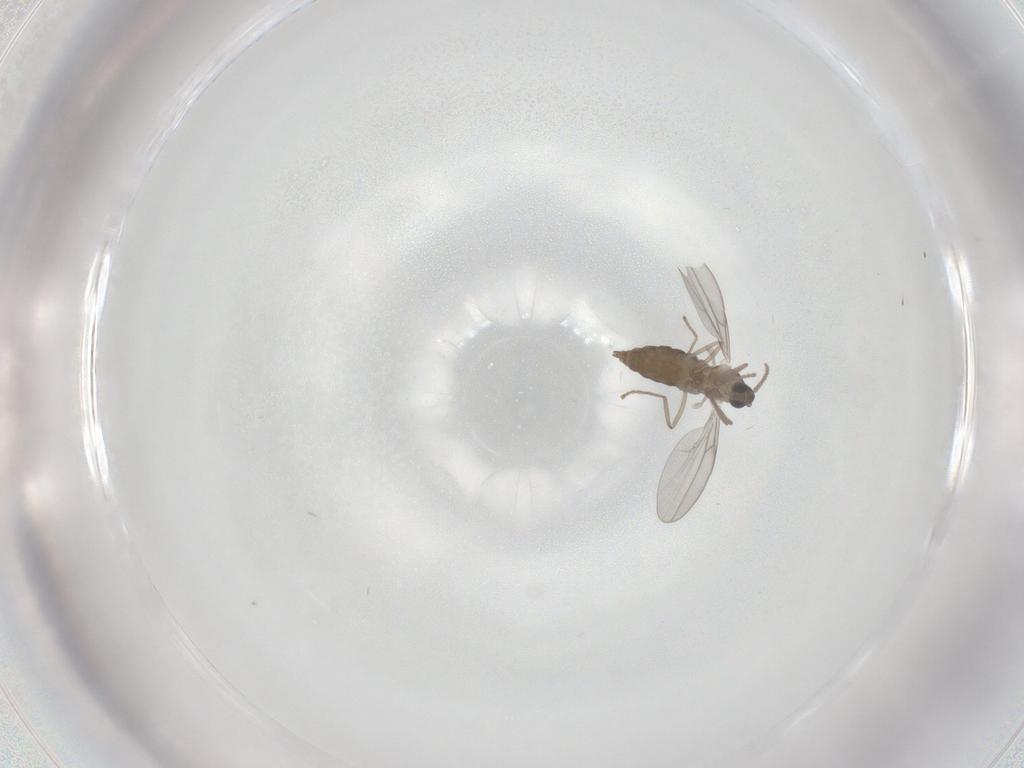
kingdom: Animalia
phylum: Arthropoda
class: Insecta
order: Diptera
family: Cecidomyiidae
